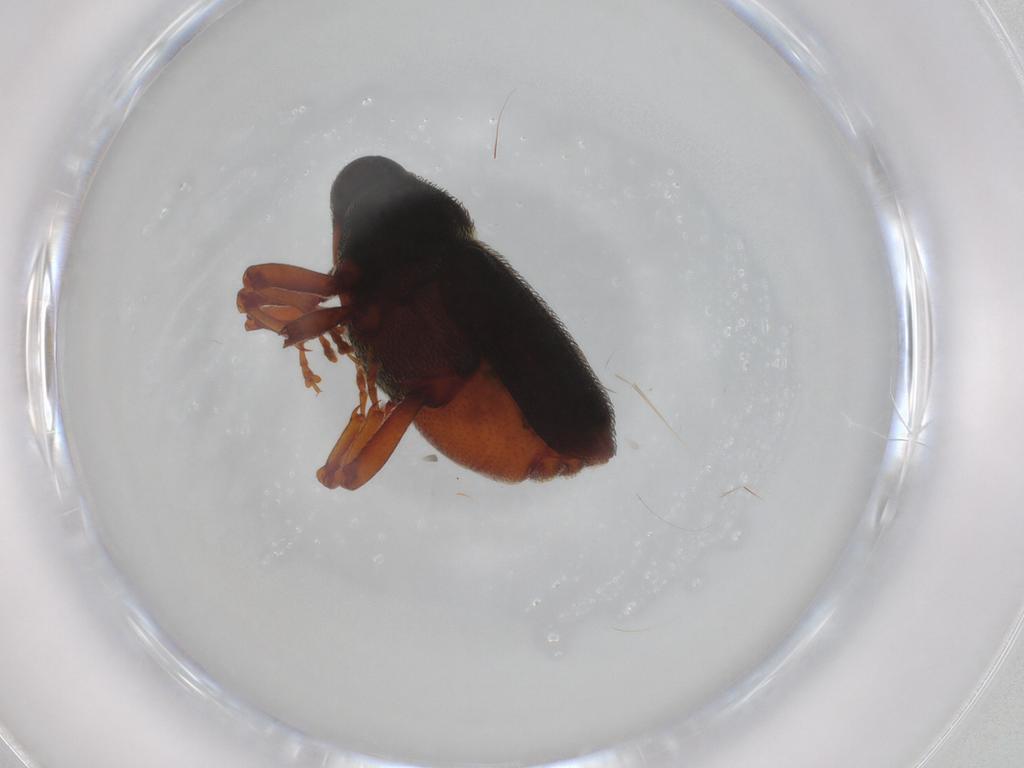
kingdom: Animalia
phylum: Arthropoda
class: Insecta
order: Coleoptera
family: Curculionidae
